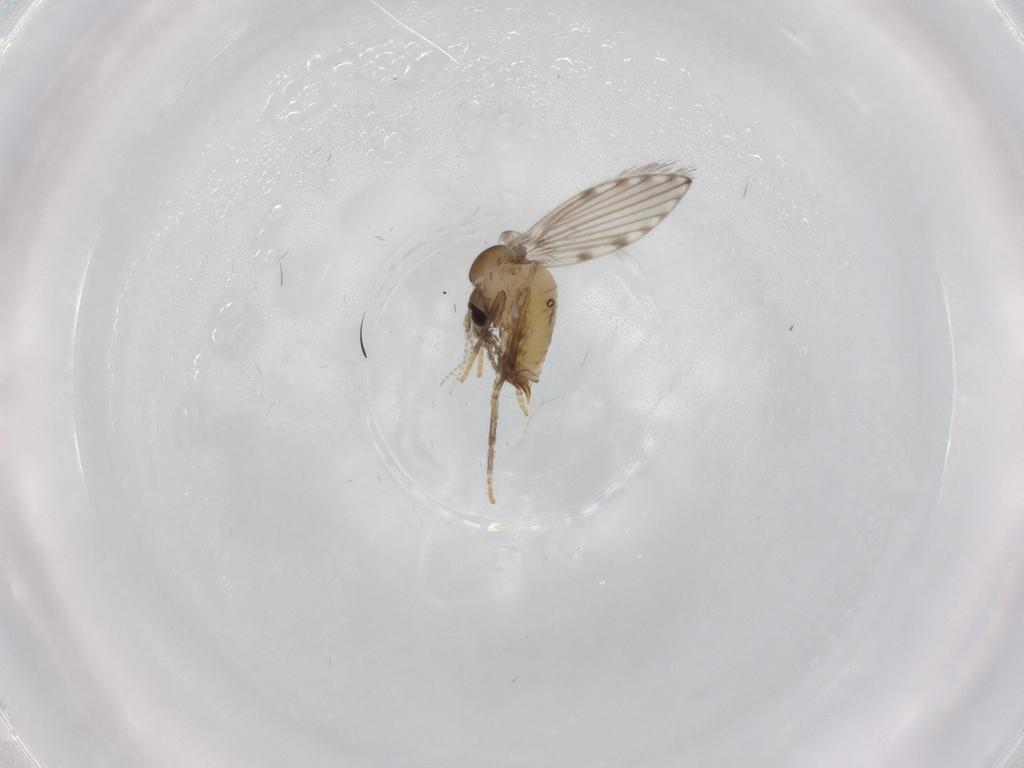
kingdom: Animalia
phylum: Arthropoda
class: Insecta
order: Diptera
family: Psychodidae
